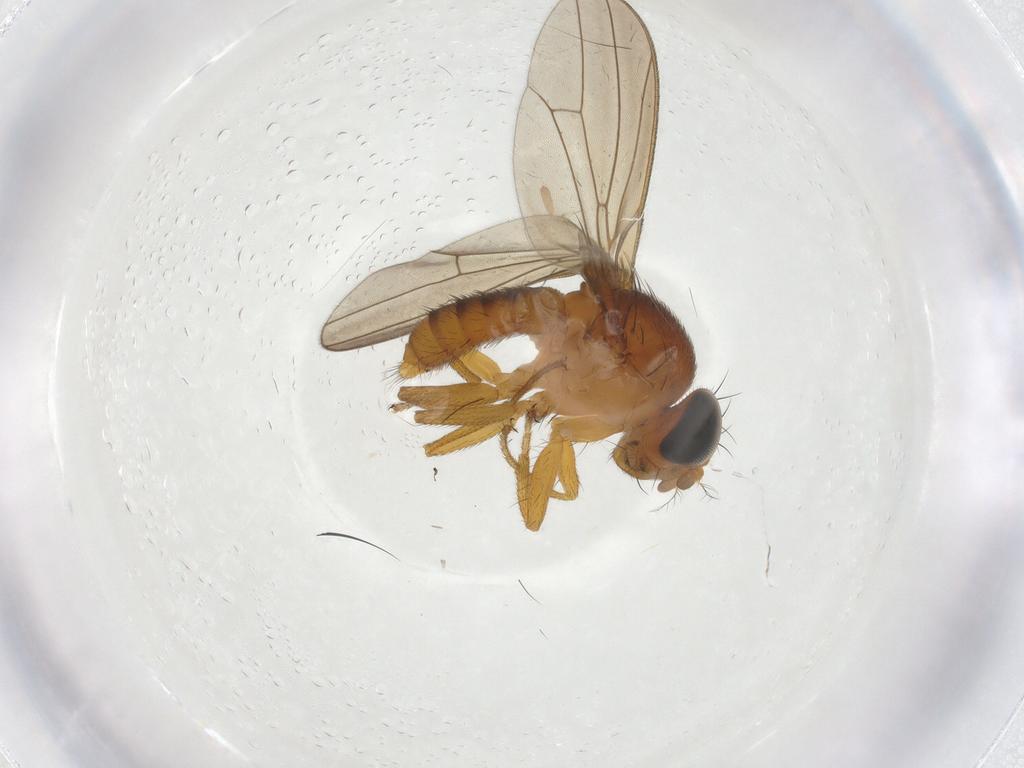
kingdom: Animalia
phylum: Arthropoda
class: Insecta
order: Diptera
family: Drosophilidae
